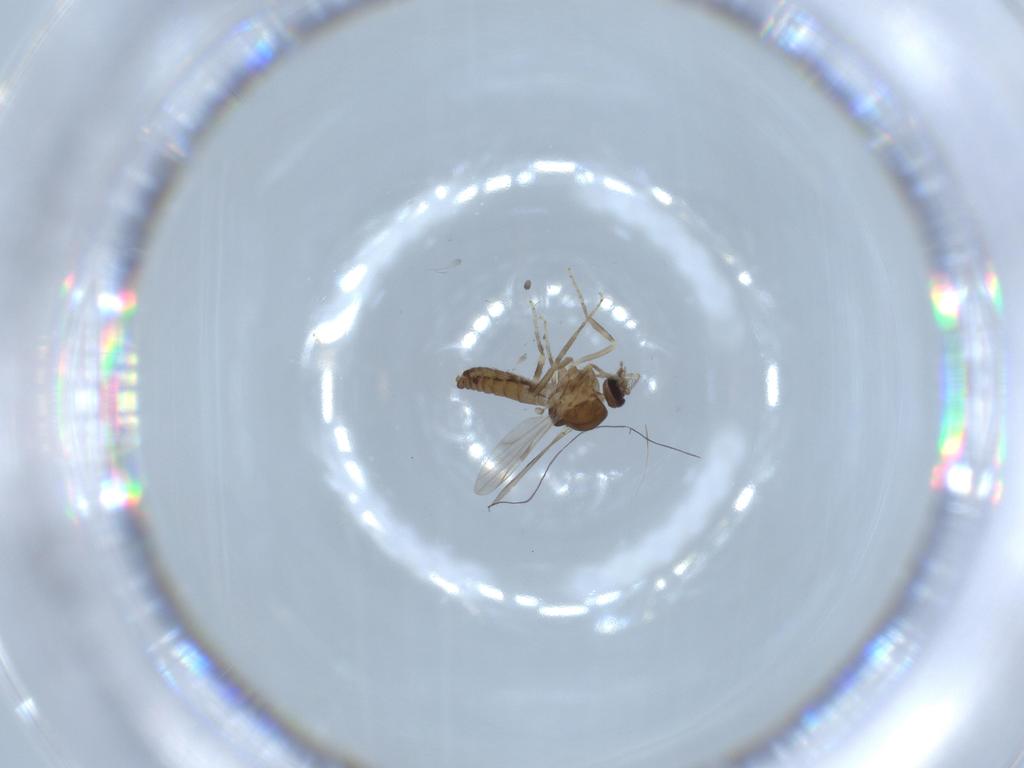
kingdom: Animalia
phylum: Arthropoda
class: Insecta
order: Diptera
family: Ceratopogonidae
